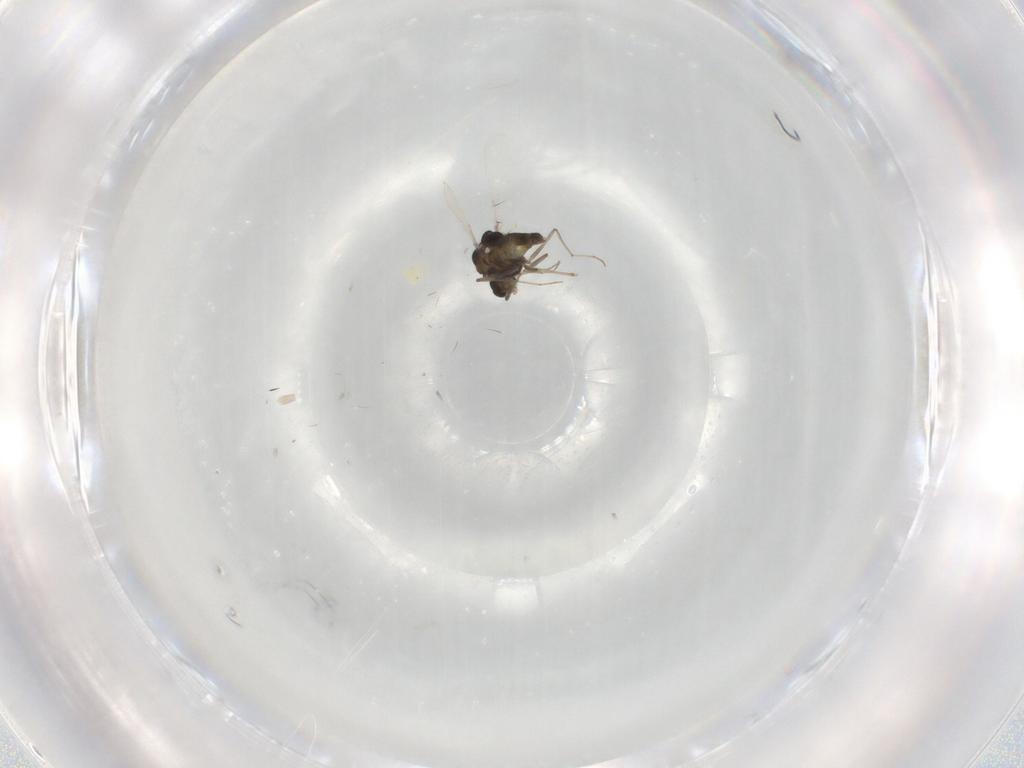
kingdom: Animalia
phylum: Arthropoda
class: Insecta
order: Diptera
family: Chironomidae
